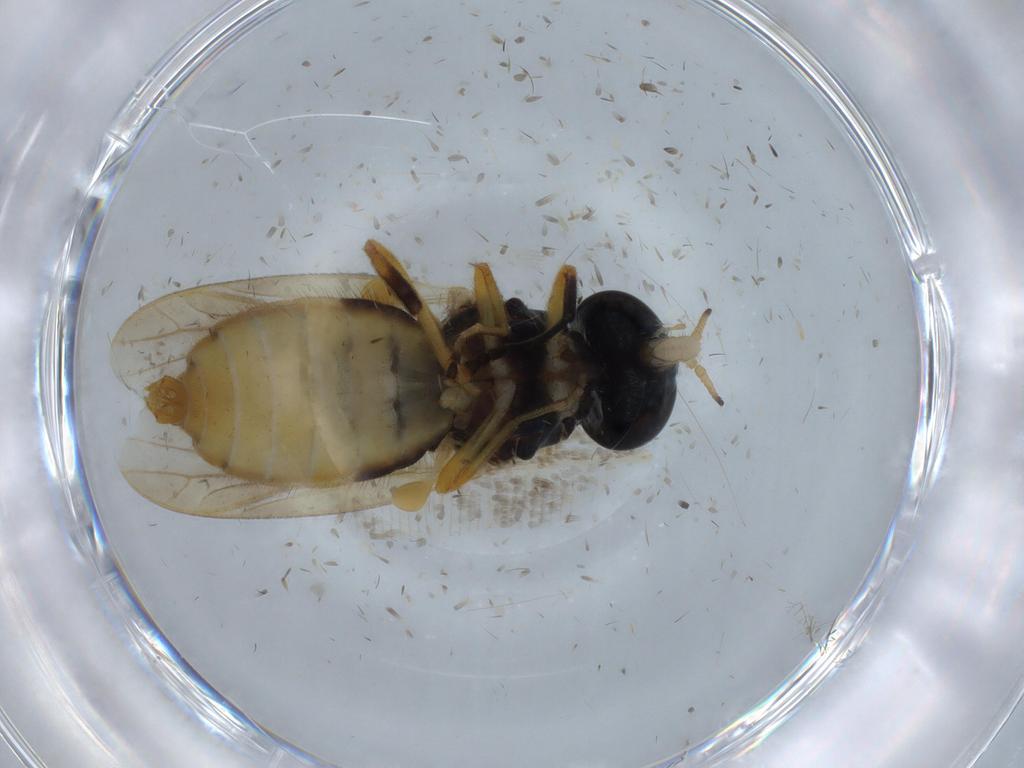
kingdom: Animalia
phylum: Arthropoda
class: Insecta
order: Diptera
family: Stratiomyidae
